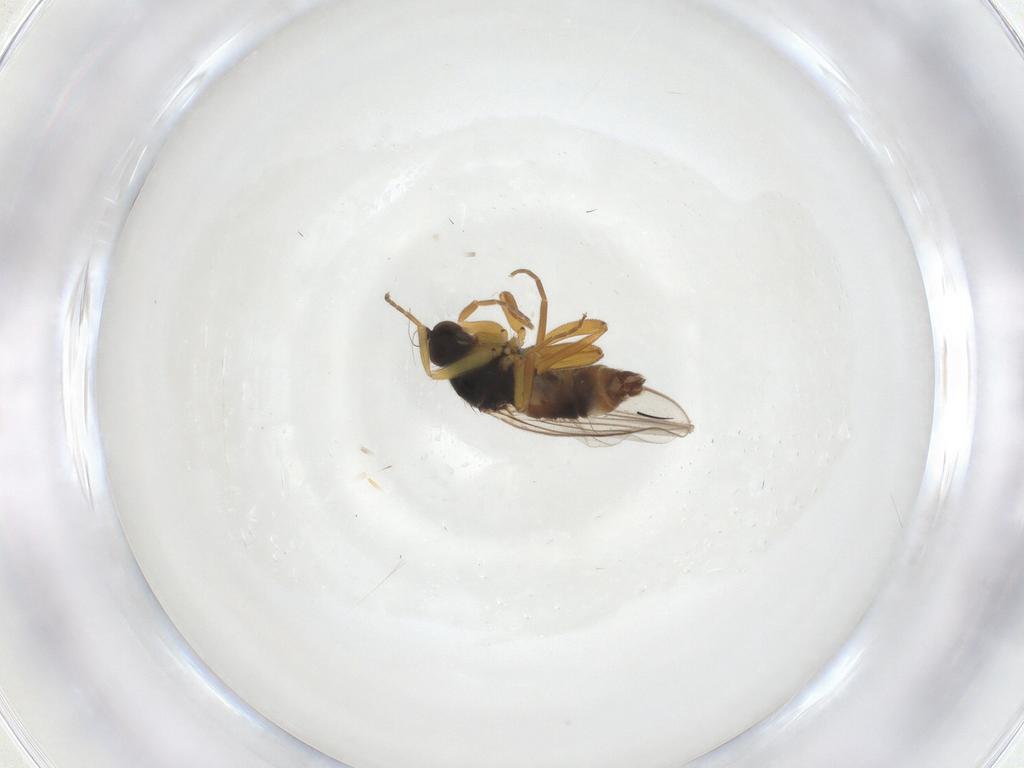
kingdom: Animalia
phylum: Arthropoda
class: Insecta
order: Diptera
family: Hybotidae
